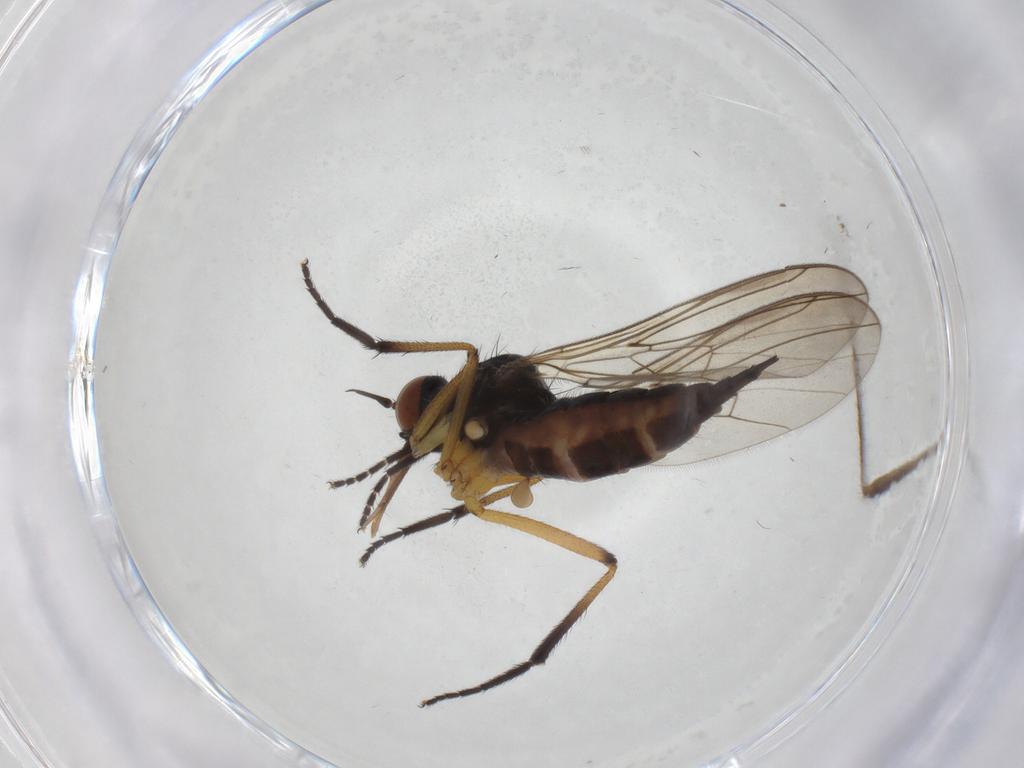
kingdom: Animalia
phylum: Arthropoda
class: Insecta
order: Diptera
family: Empididae
